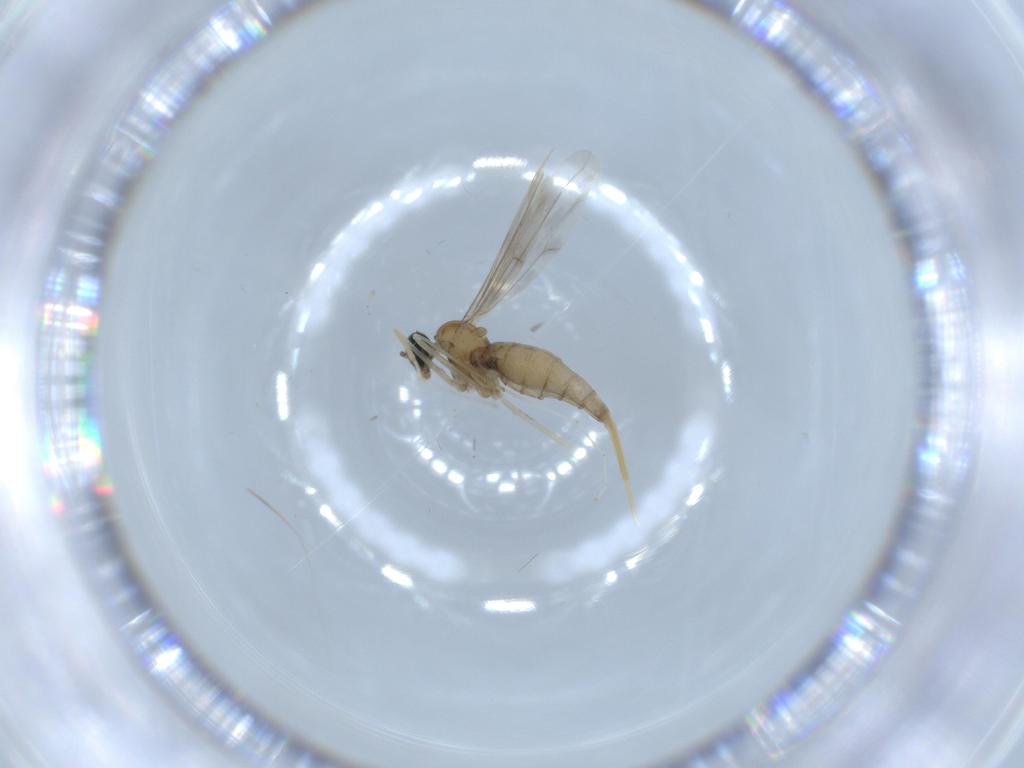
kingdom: Animalia
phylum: Arthropoda
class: Insecta
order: Diptera
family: Cecidomyiidae
